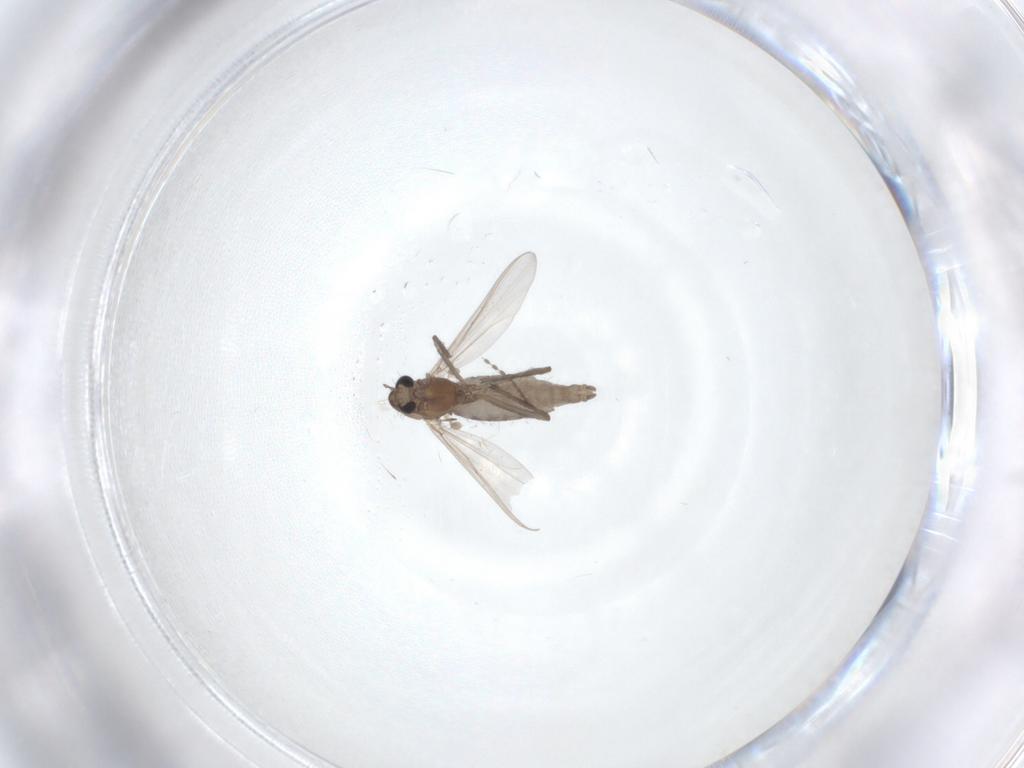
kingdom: Animalia
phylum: Arthropoda
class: Insecta
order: Diptera
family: Chironomidae
